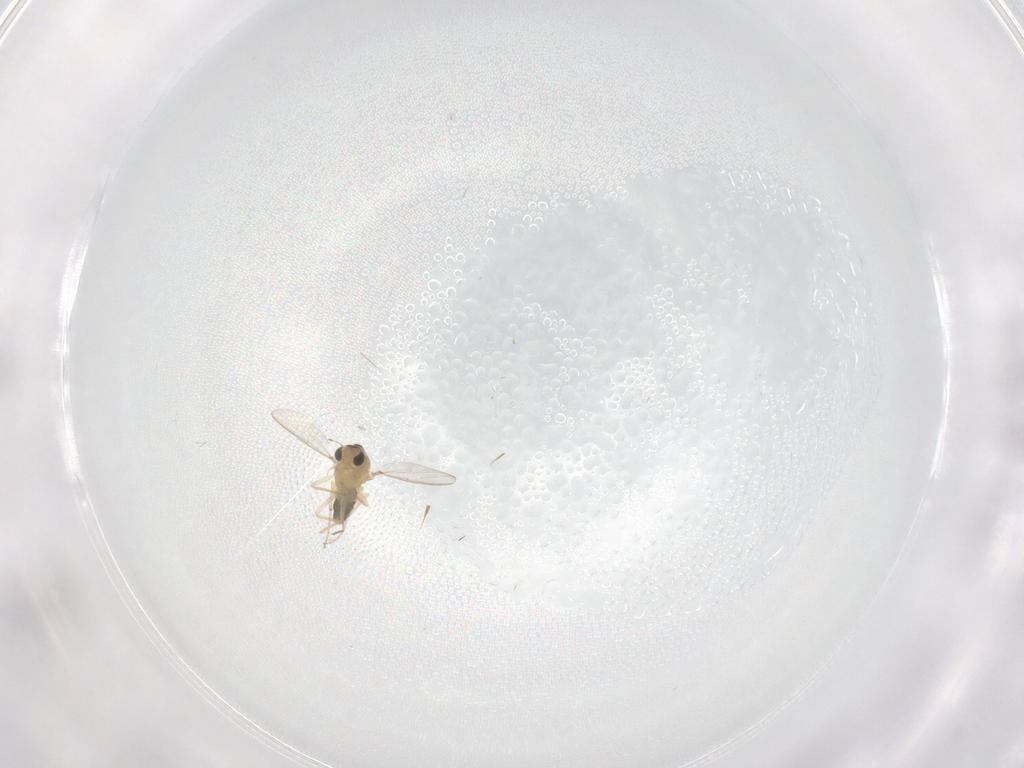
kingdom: Animalia
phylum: Arthropoda
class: Insecta
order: Diptera
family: Chironomidae
